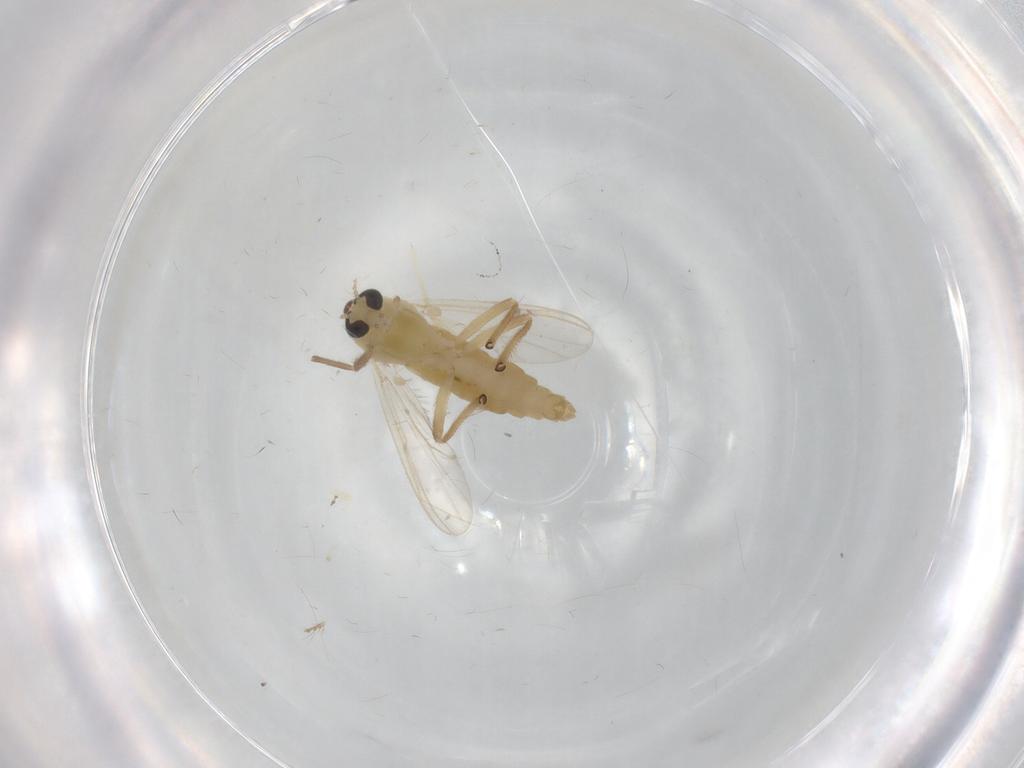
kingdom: Animalia
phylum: Arthropoda
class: Insecta
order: Diptera
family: Chironomidae
